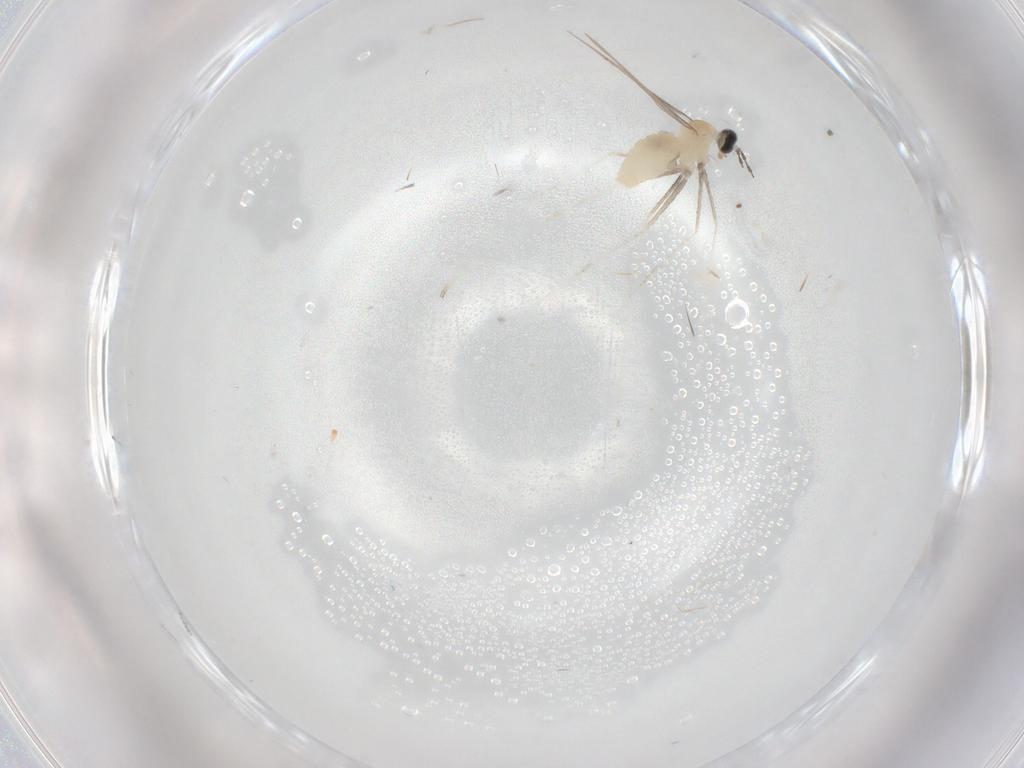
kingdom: Animalia
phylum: Arthropoda
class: Insecta
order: Diptera
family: Cecidomyiidae
